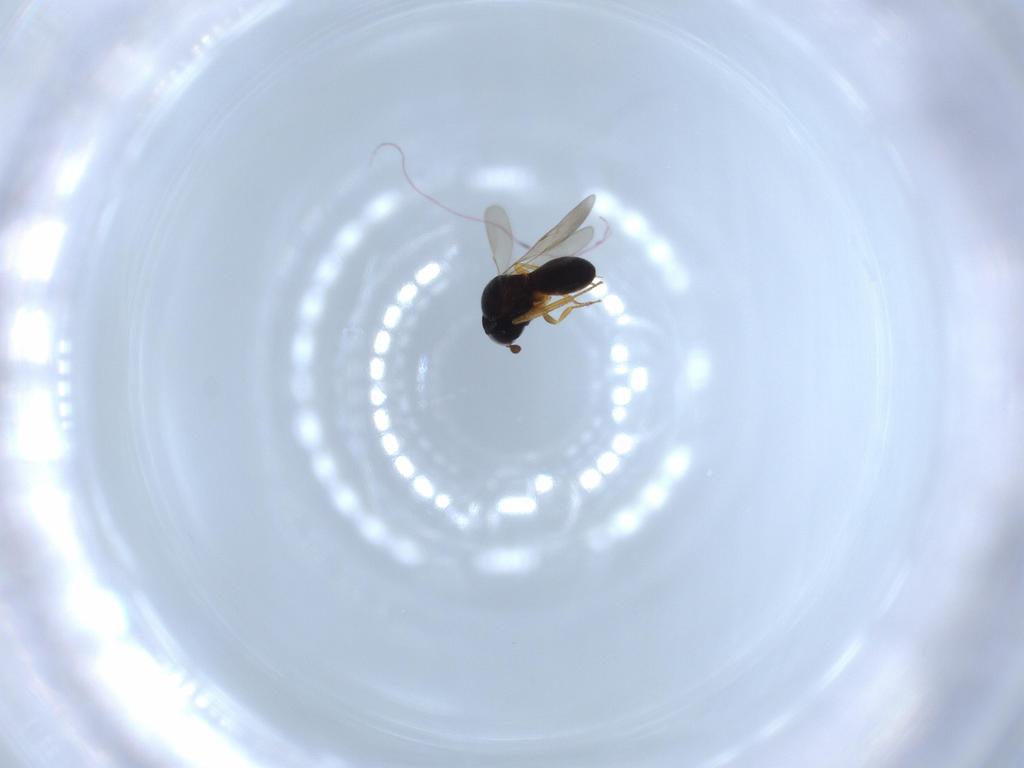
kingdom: Animalia
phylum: Arthropoda
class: Insecta
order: Hymenoptera
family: Scelionidae
